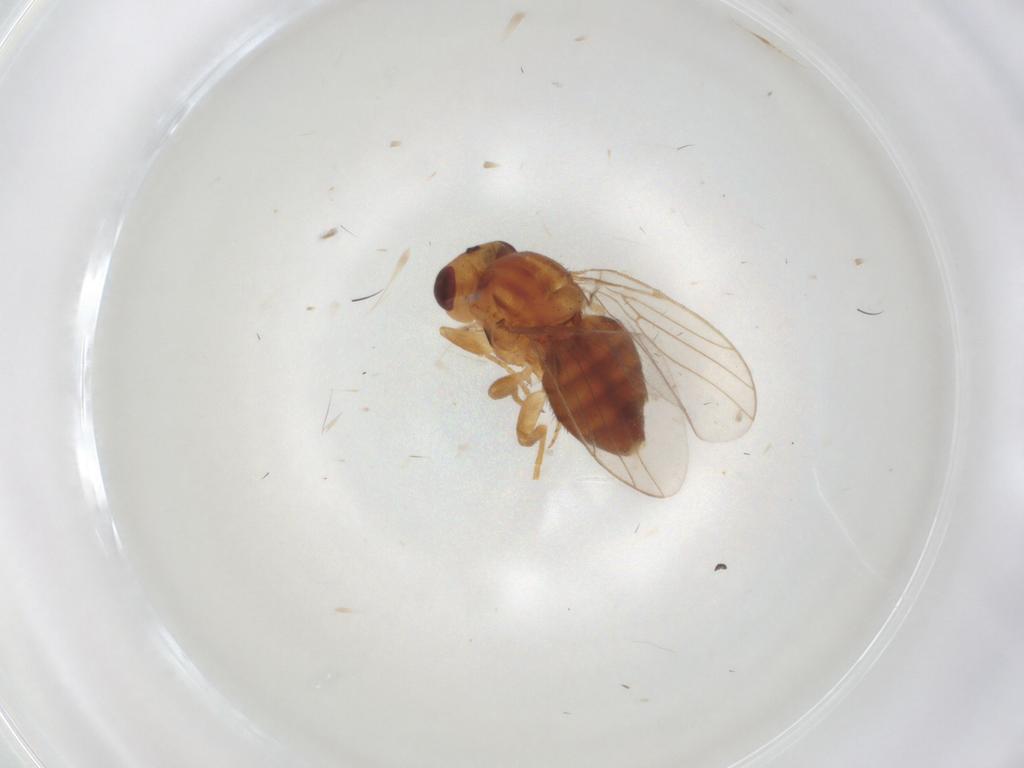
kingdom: Animalia
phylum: Arthropoda
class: Insecta
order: Diptera
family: Chloropidae
